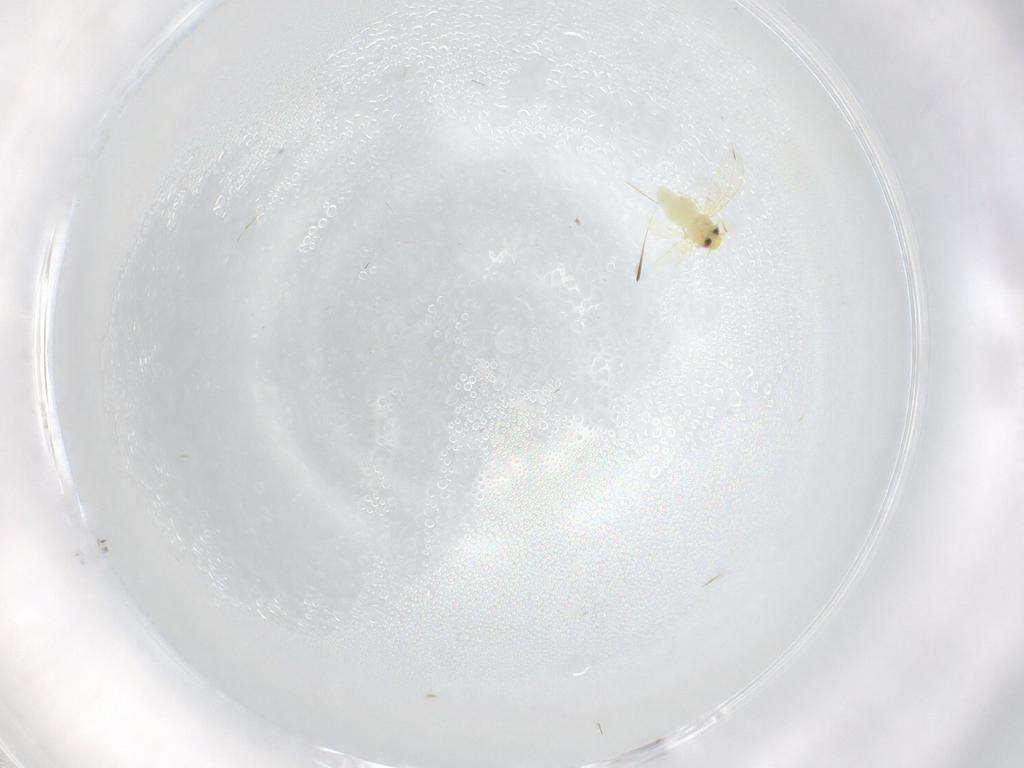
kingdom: Animalia
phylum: Arthropoda
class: Insecta
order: Hemiptera
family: Aleyrodidae
